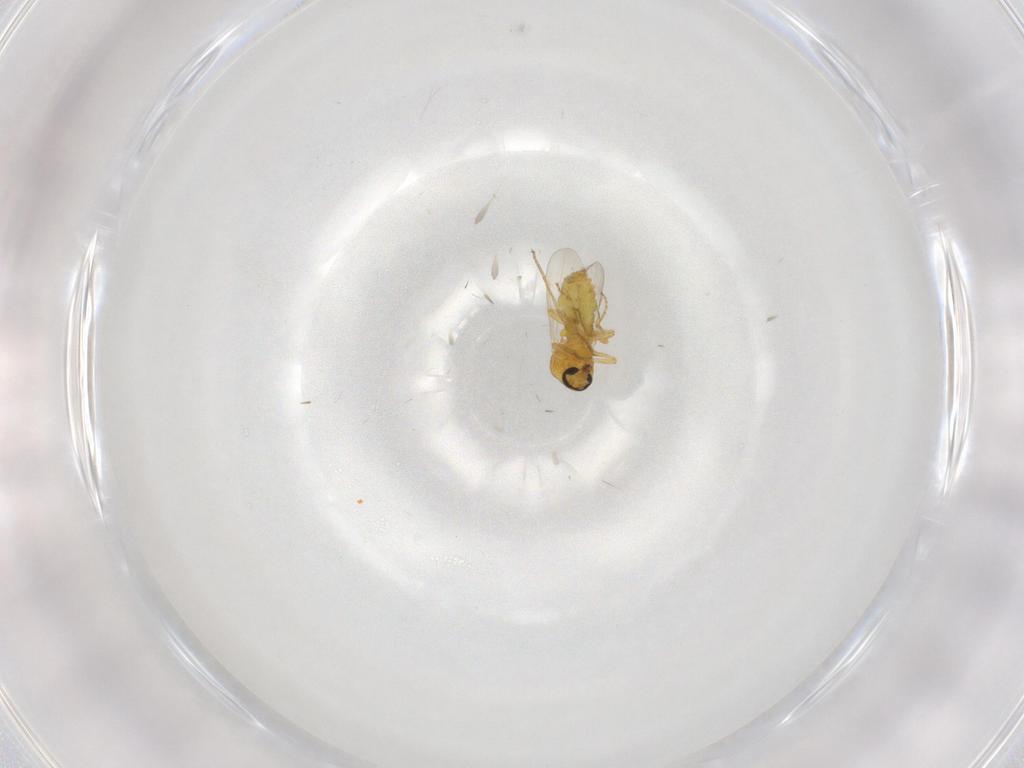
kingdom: Animalia
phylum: Arthropoda
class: Insecta
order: Diptera
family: Ceratopogonidae
